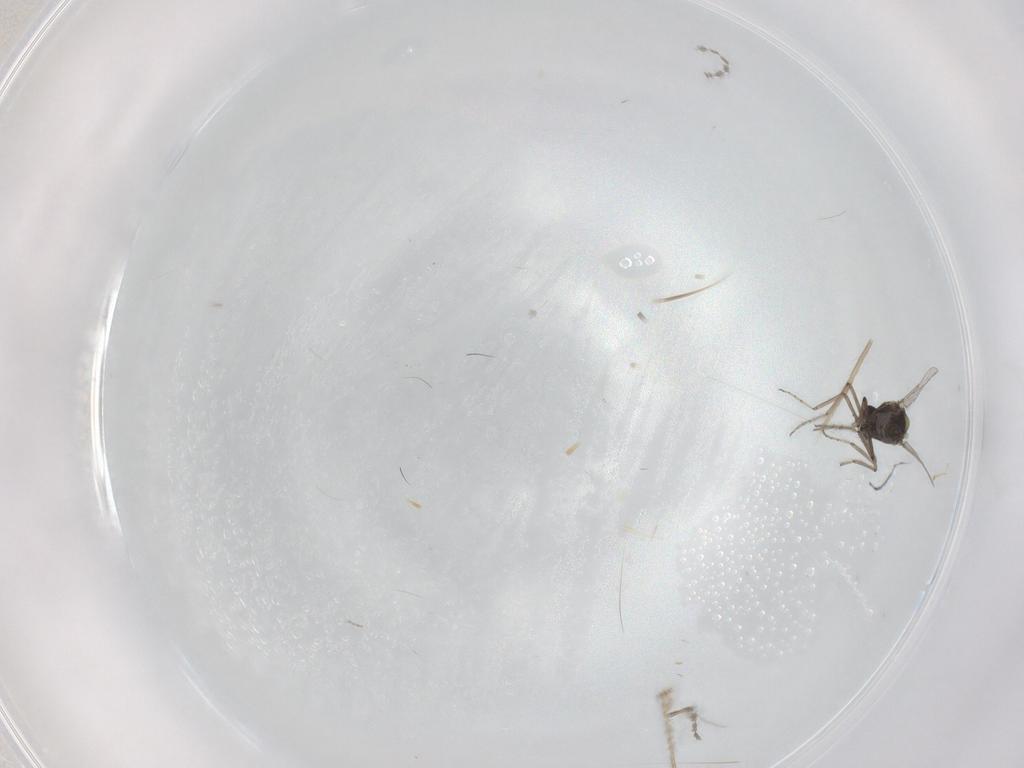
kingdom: Animalia
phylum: Arthropoda
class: Insecta
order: Diptera
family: Ceratopogonidae
